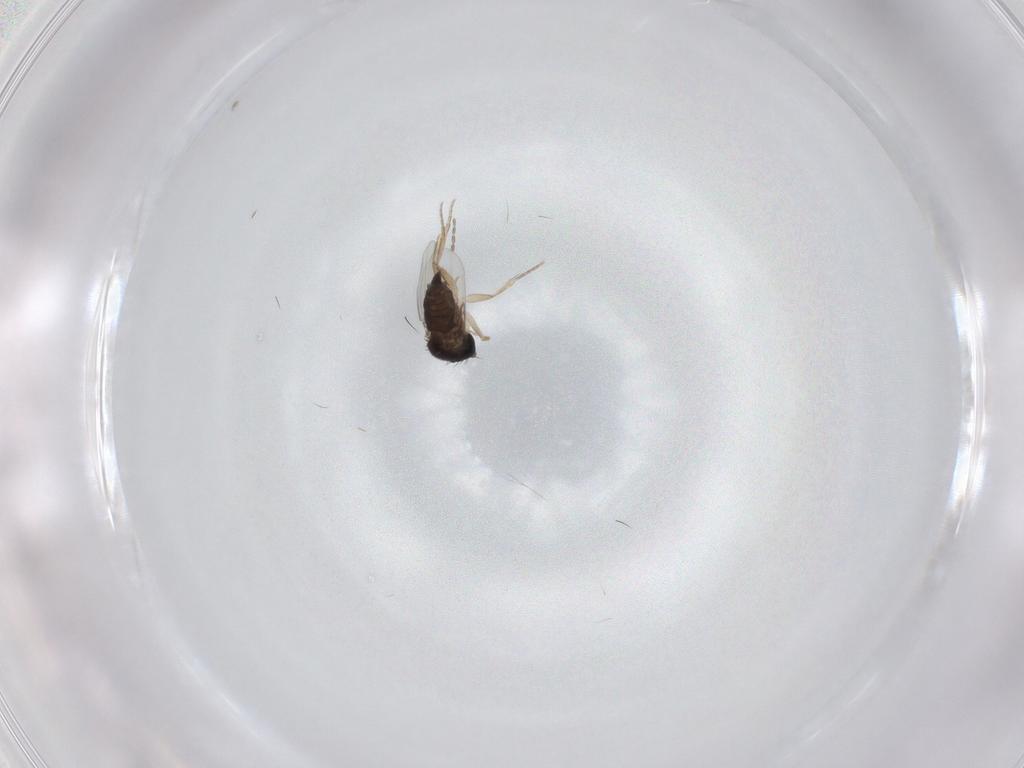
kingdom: Animalia
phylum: Arthropoda
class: Insecta
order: Diptera
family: Phoridae
